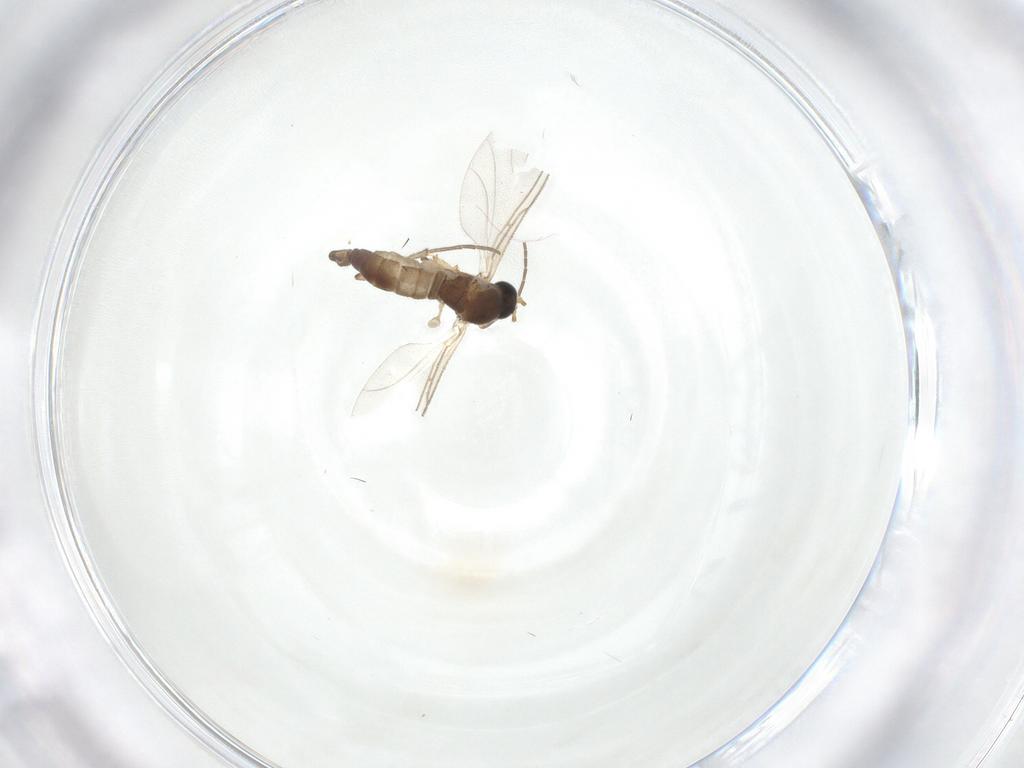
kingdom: Animalia
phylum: Arthropoda
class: Insecta
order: Diptera
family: Sciaridae
